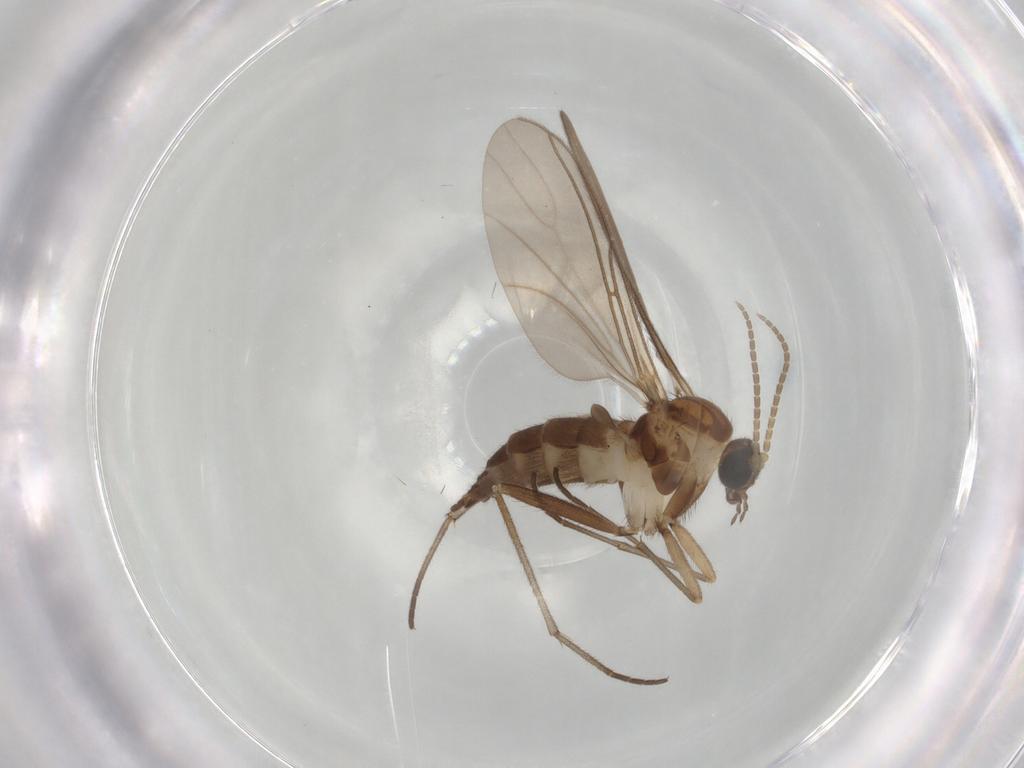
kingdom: Animalia
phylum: Arthropoda
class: Insecta
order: Diptera
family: Sciaridae
